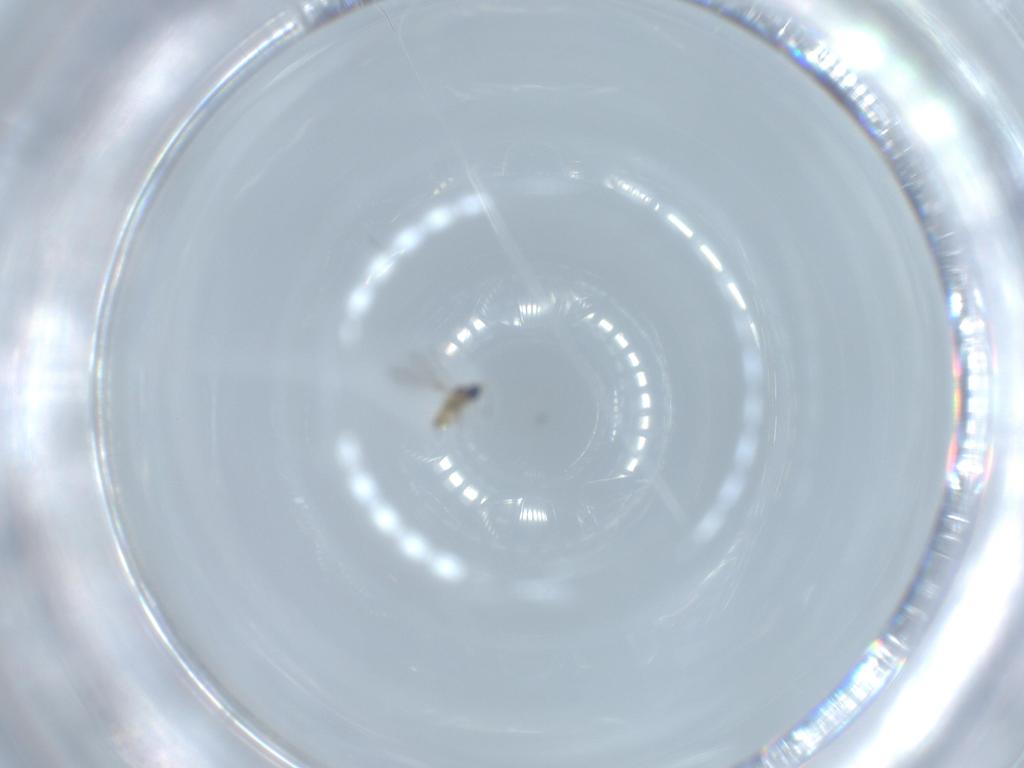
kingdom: Animalia
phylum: Arthropoda
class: Insecta
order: Hymenoptera
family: Mymaridae
